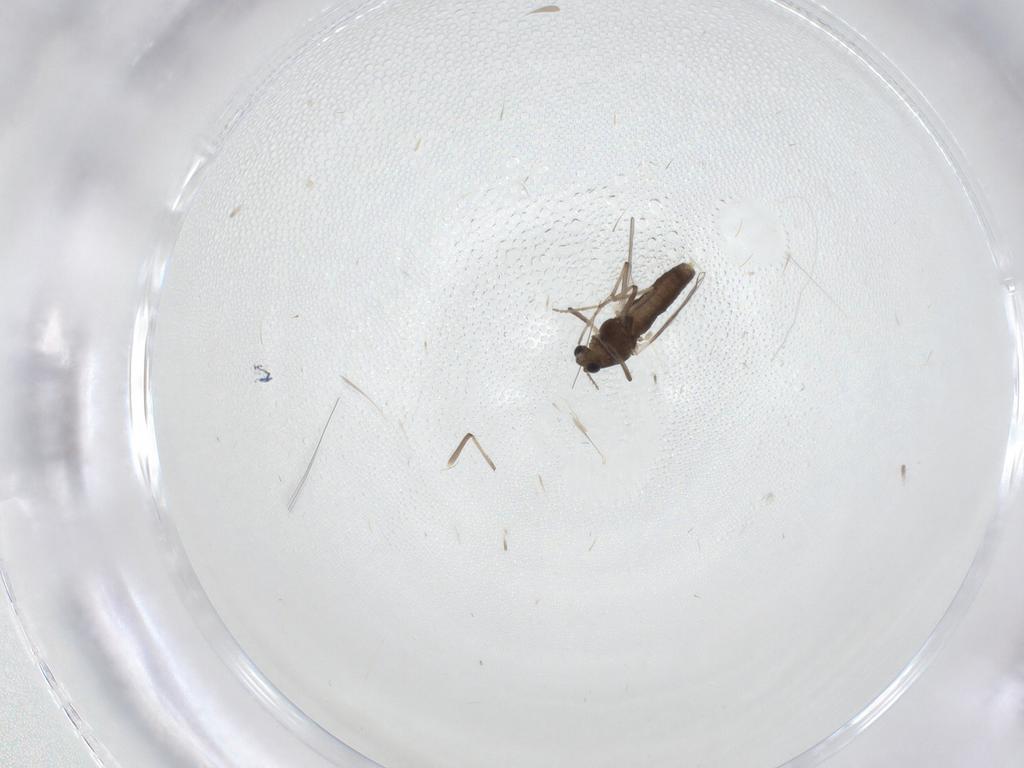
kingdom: Animalia
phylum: Arthropoda
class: Insecta
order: Diptera
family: Chironomidae
